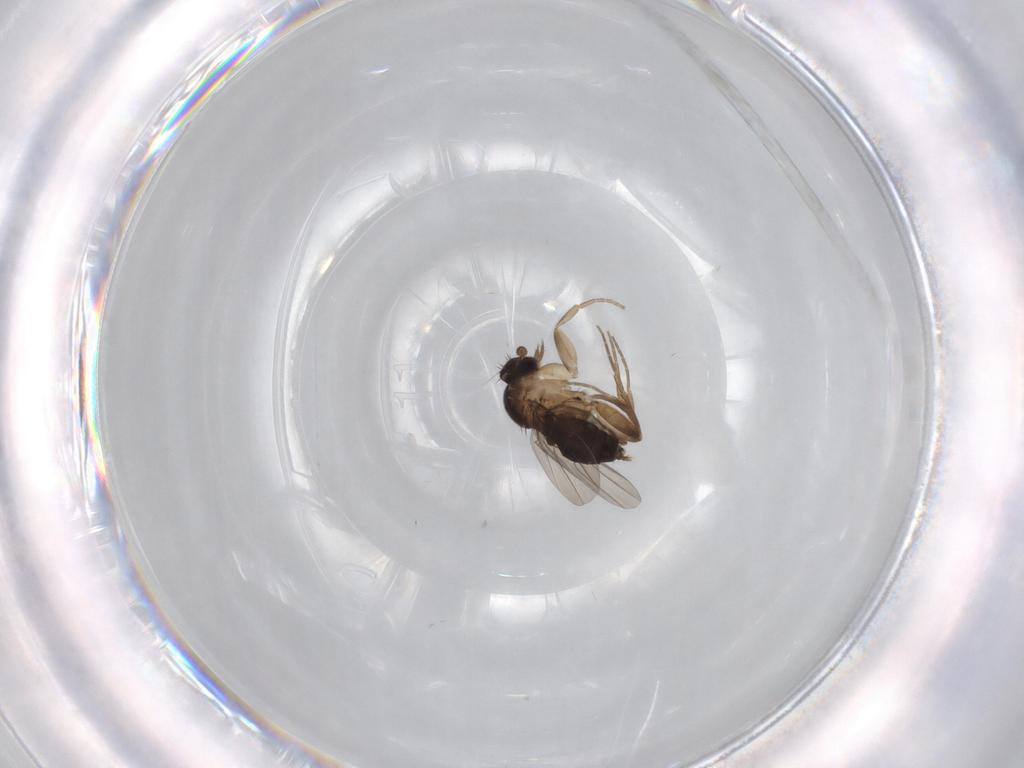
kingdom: Animalia
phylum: Arthropoda
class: Insecta
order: Diptera
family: Phoridae
